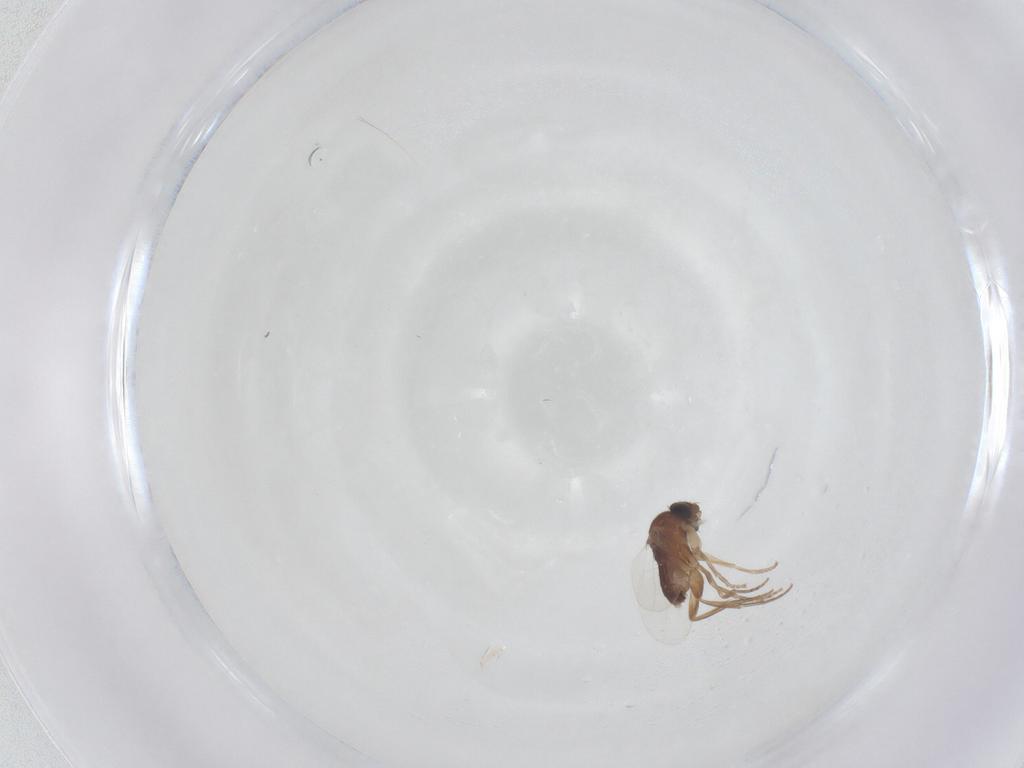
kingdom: Animalia
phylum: Arthropoda
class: Insecta
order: Diptera
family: Phoridae
